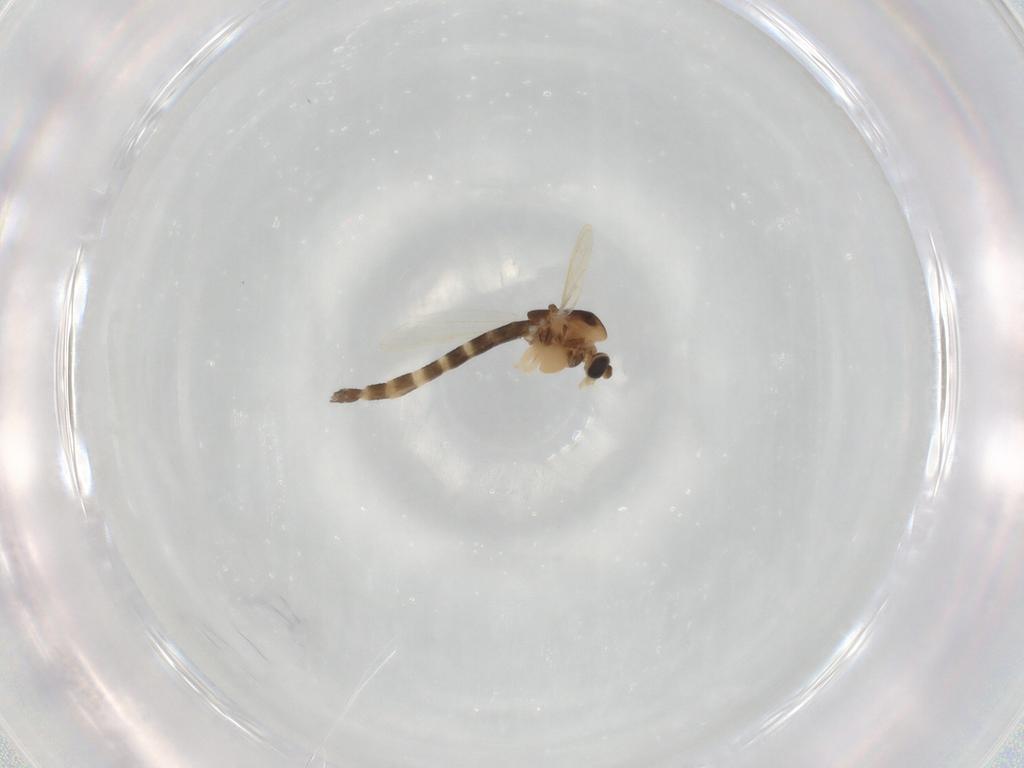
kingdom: Animalia
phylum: Arthropoda
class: Insecta
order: Diptera
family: Chironomidae
